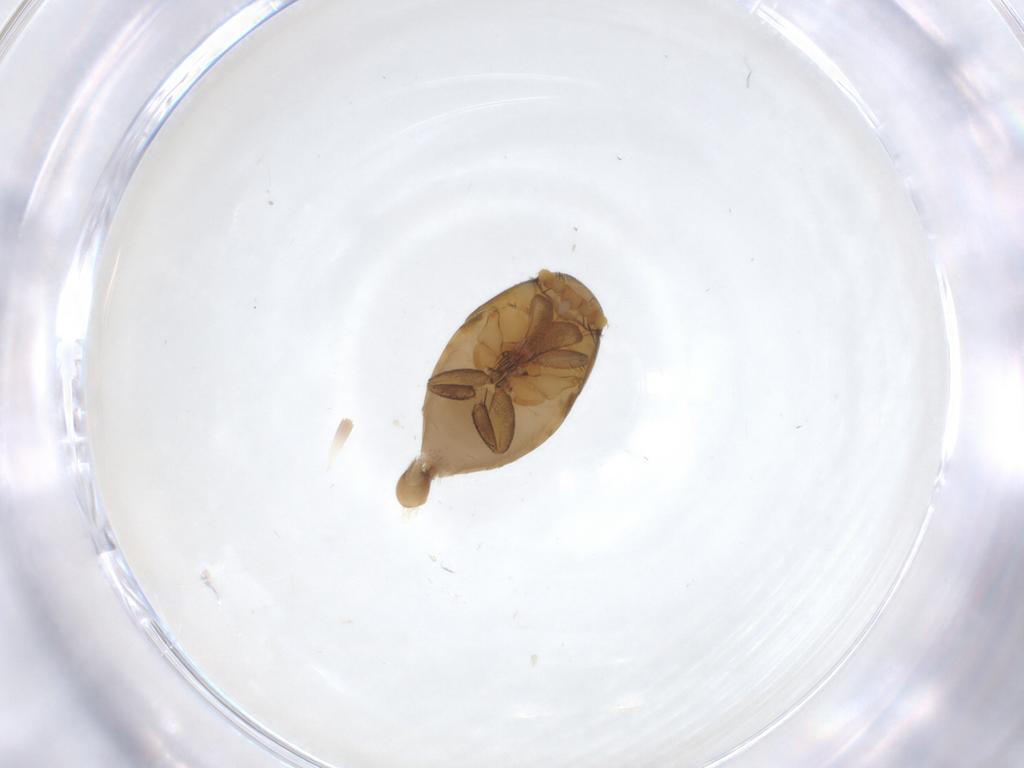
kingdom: Animalia
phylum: Arthropoda
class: Insecta
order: Diptera
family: Phoridae
